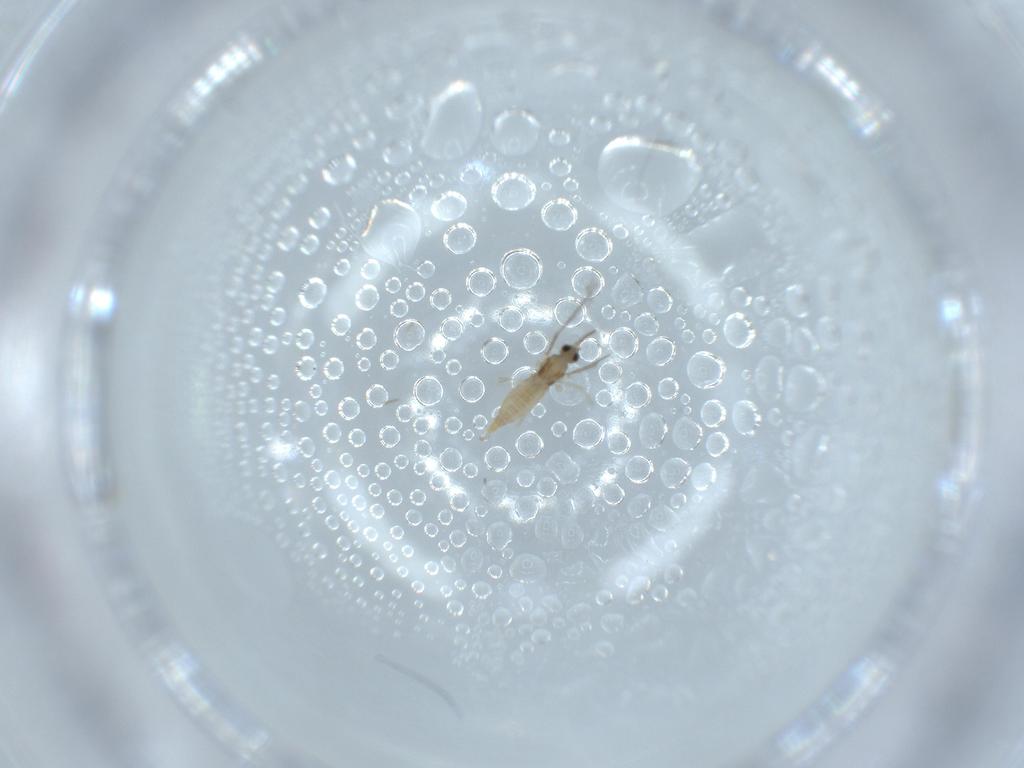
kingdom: Animalia
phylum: Arthropoda
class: Insecta
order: Diptera
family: Cecidomyiidae
